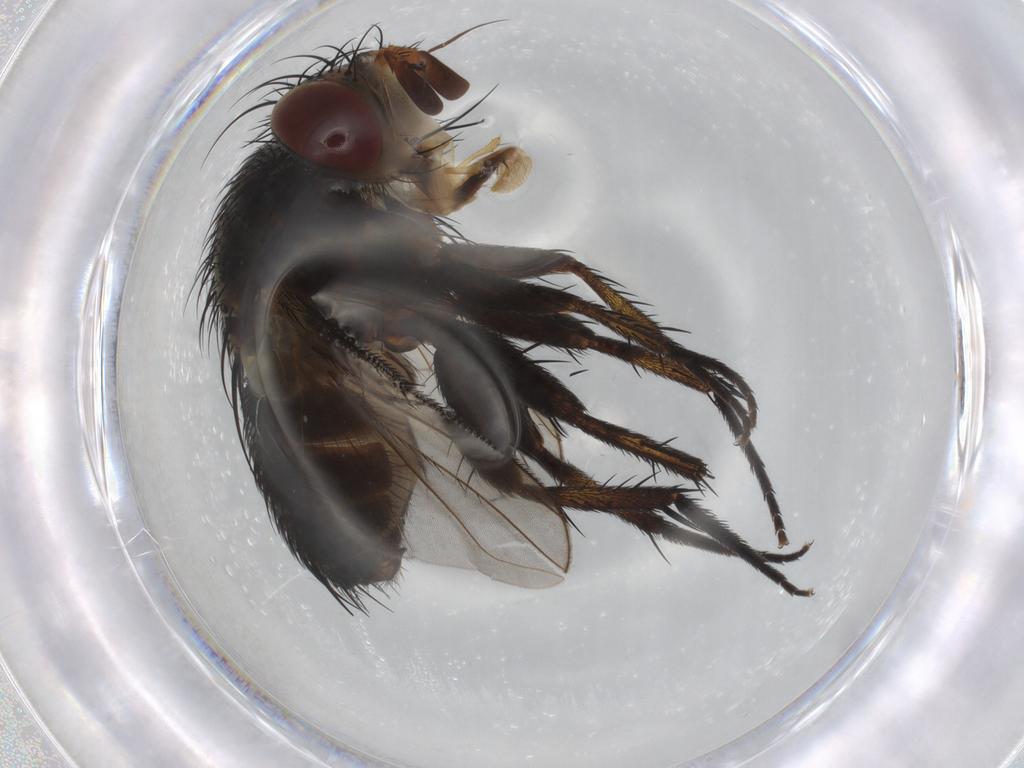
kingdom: Animalia
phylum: Arthropoda
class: Insecta
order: Diptera
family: Tachinidae
